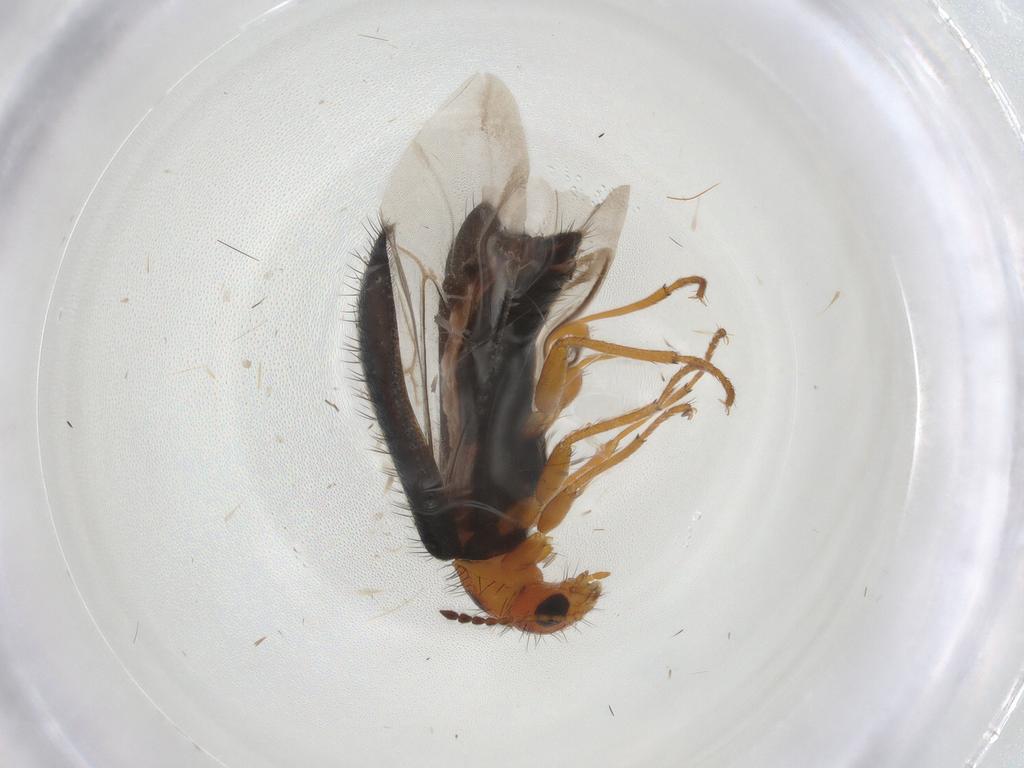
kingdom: Animalia
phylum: Arthropoda
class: Insecta
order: Coleoptera
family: Melyridae
